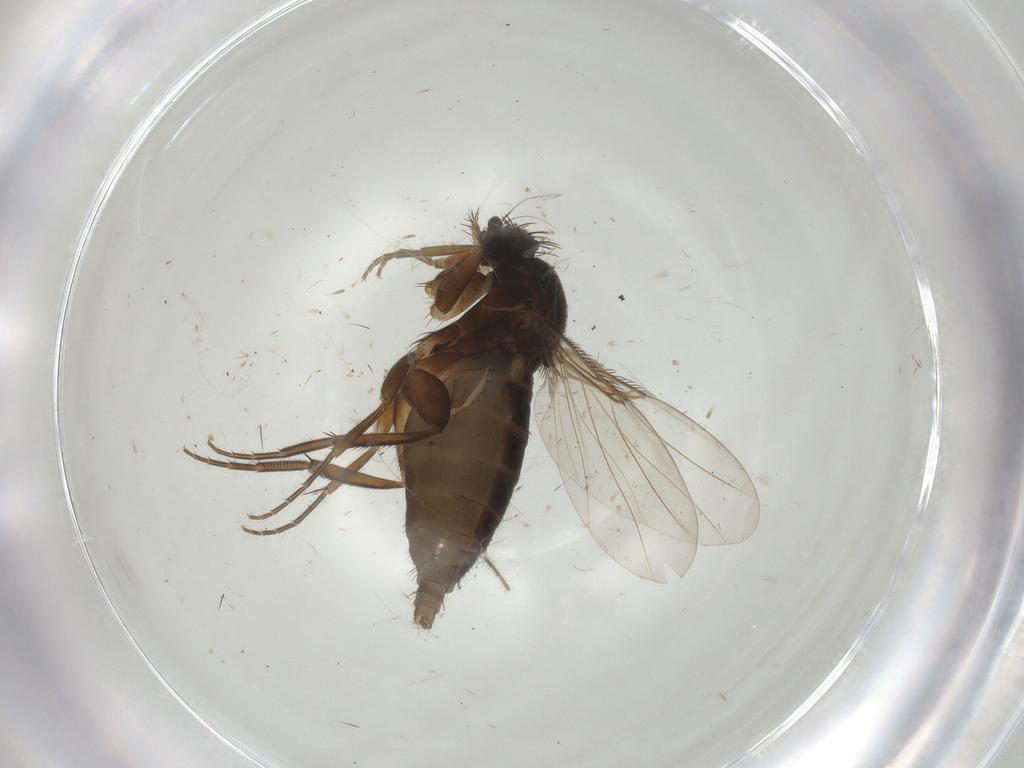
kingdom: Animalia
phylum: Arthropoda
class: Insecta
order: Diptera
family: Phoridae
